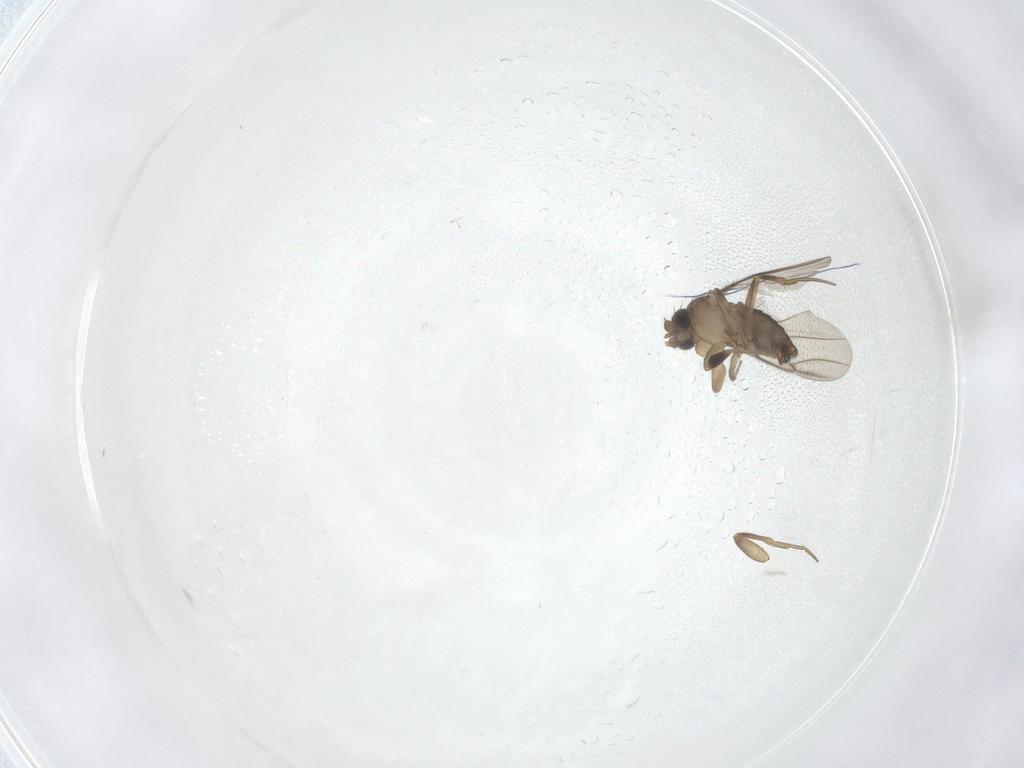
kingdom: Animalia
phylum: Arthropoda
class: Insecta
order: Diptera
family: Phoridae
